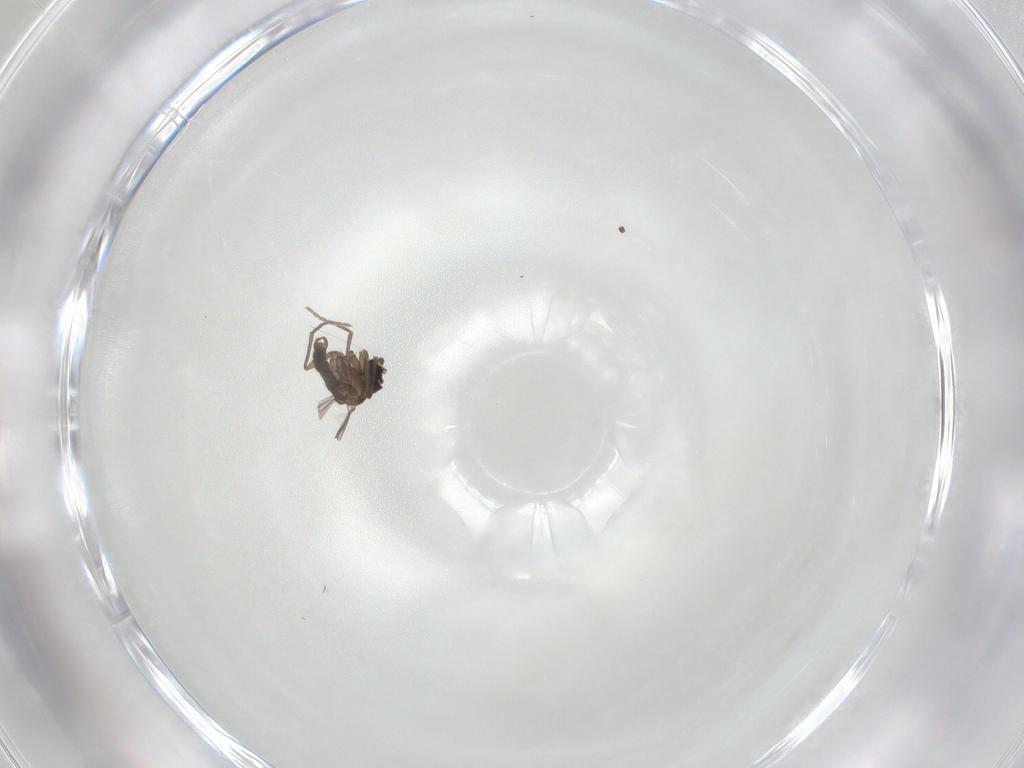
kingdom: Animalia
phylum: Arthropoda
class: Insecta
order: Diptera
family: Sciaridae
